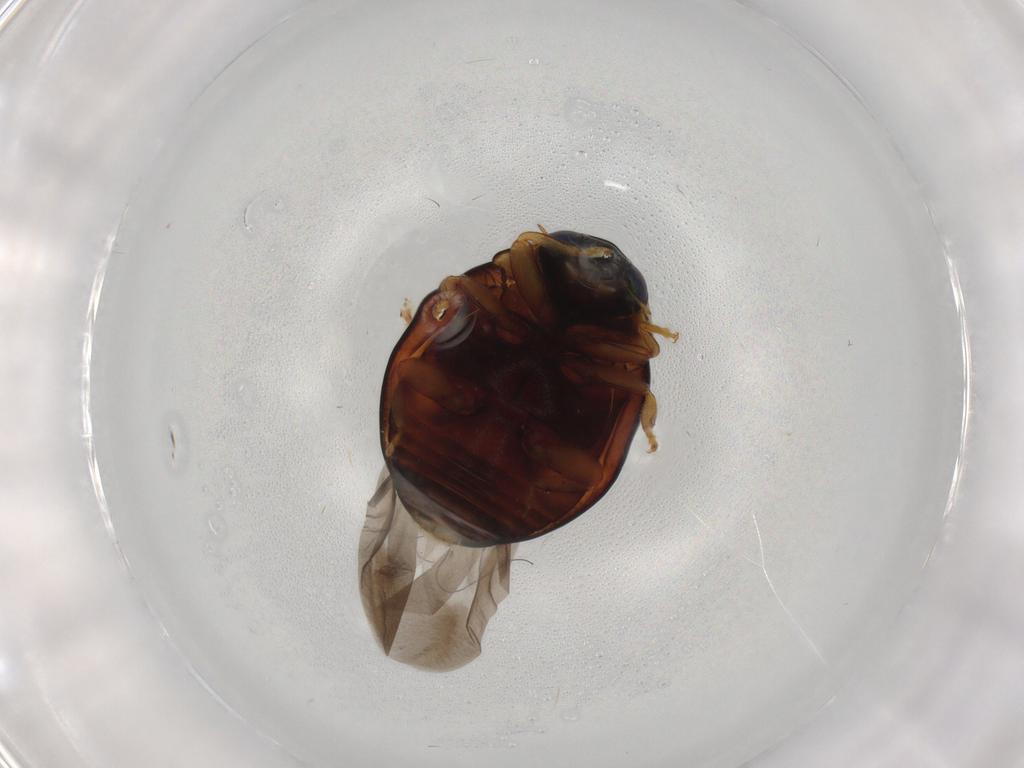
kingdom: Animalia
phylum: Arthropoda
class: Insecta
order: Coleoptera
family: Coccinellidae
